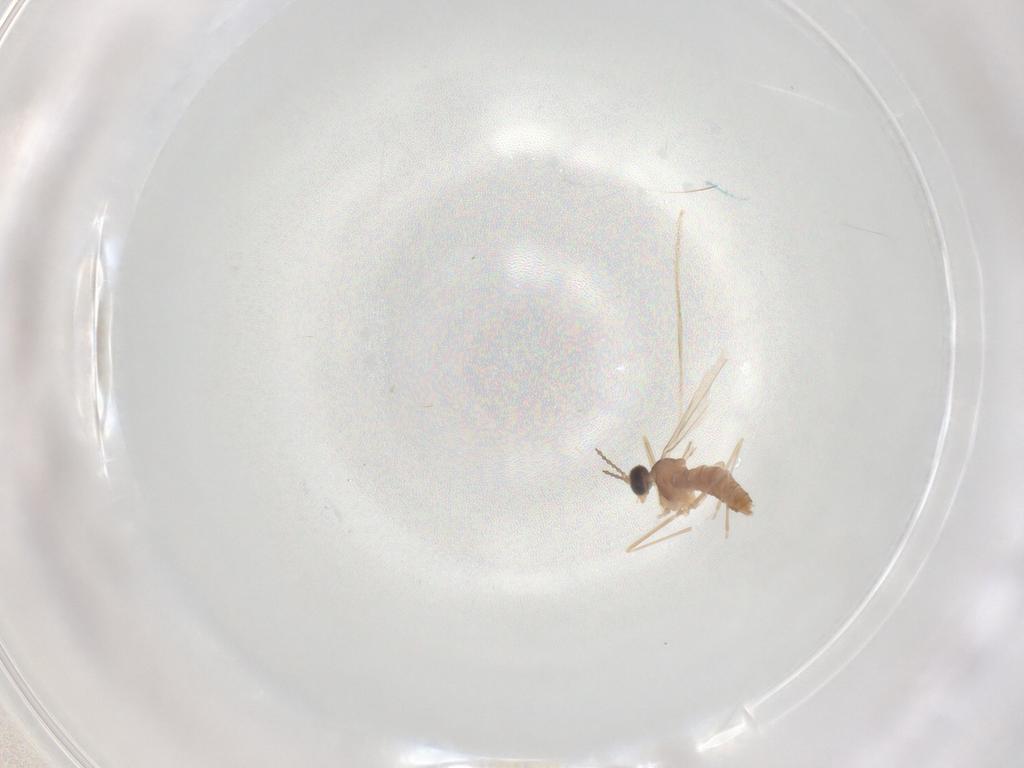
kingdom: Animalia
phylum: Arthropoda
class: Insecta
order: Diptera
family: Cecidomyiidae
